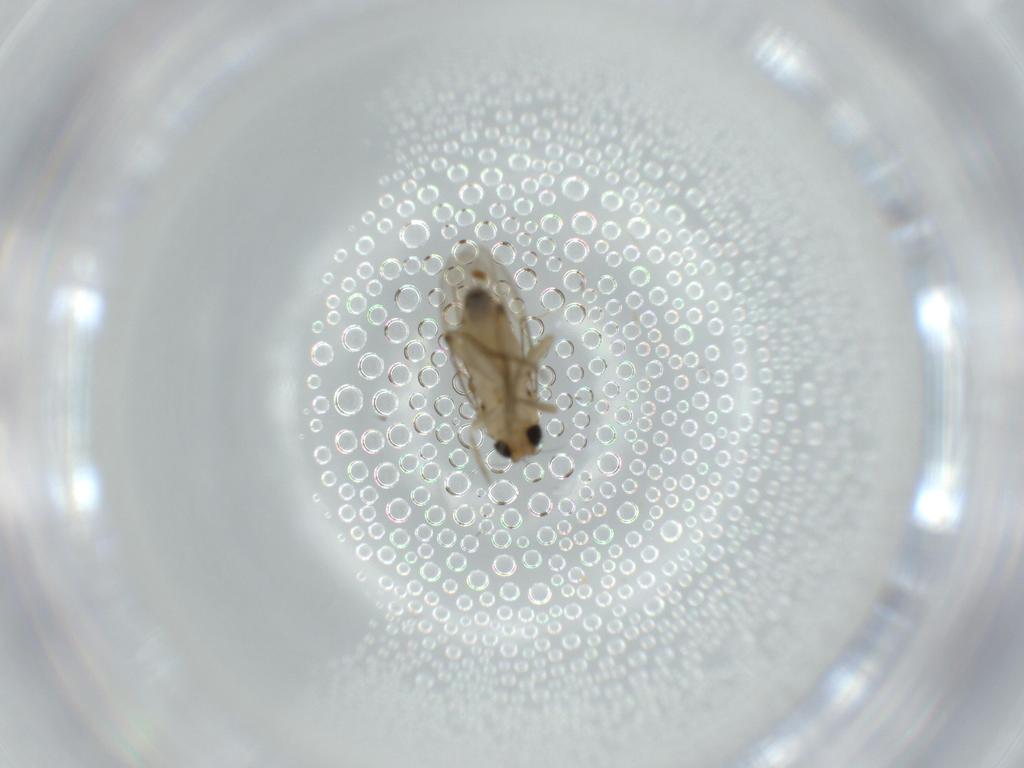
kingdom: Animalia
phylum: Arthropoda
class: Insecta
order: Diptera
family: Phoridae
